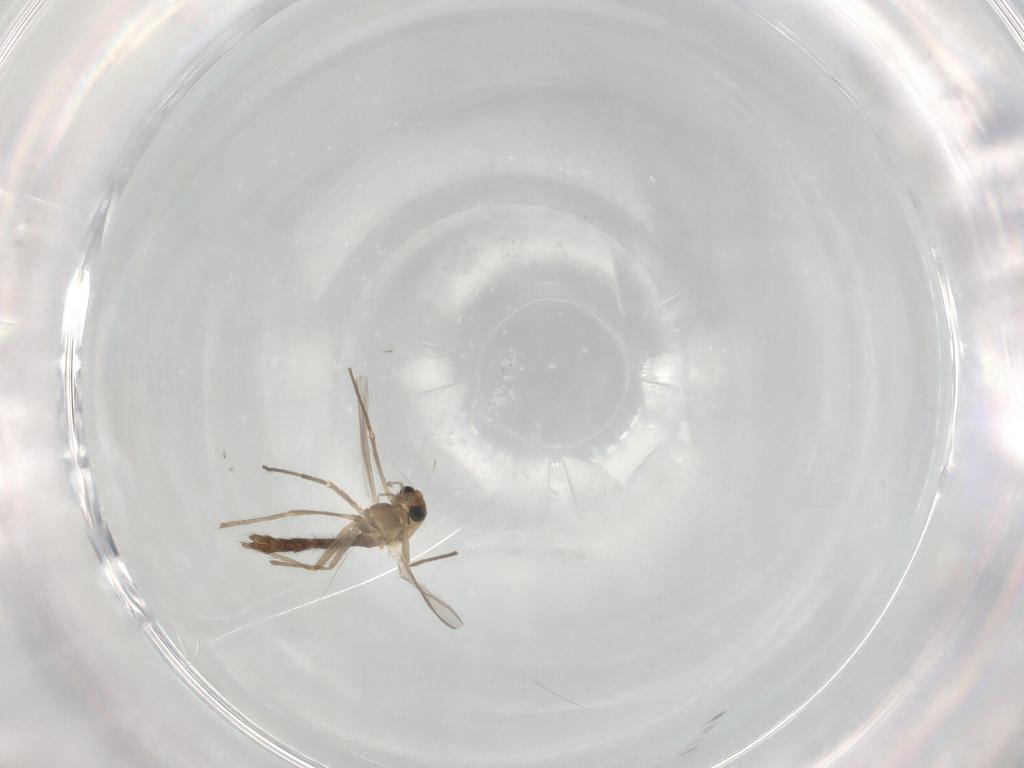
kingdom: Animalia
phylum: Arthropoda
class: Insecta
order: Diptera
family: Chironomidae
